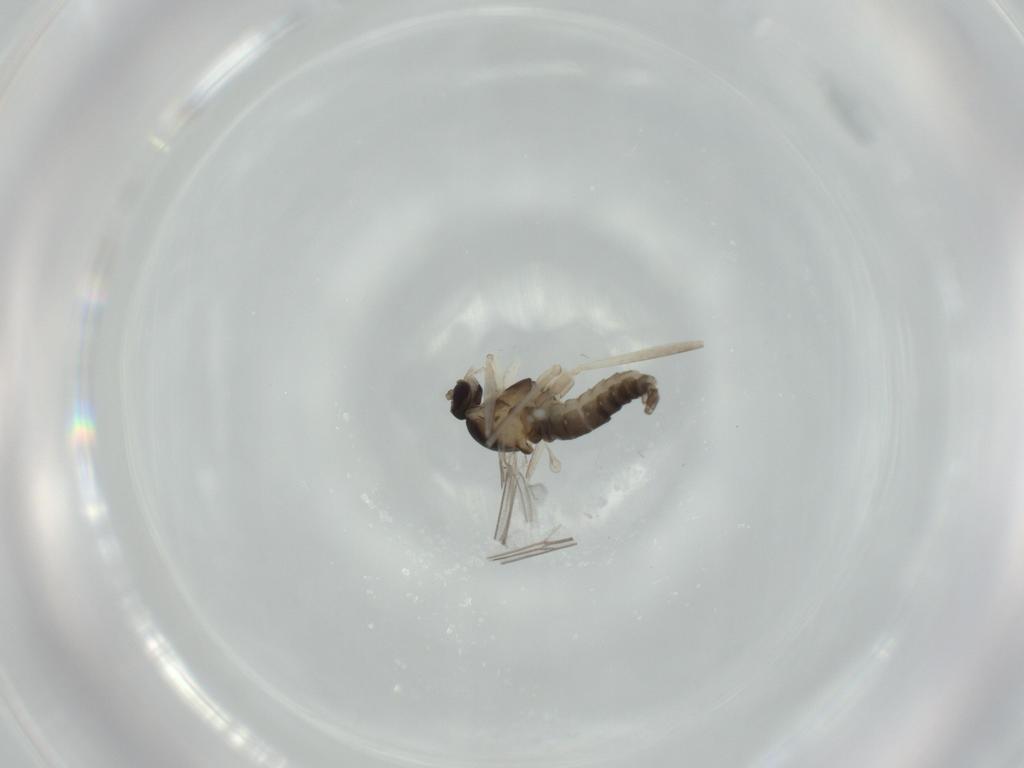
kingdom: Animalia
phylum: Arthropoda
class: Insecta
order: Diptera
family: Cecidomyiidae
